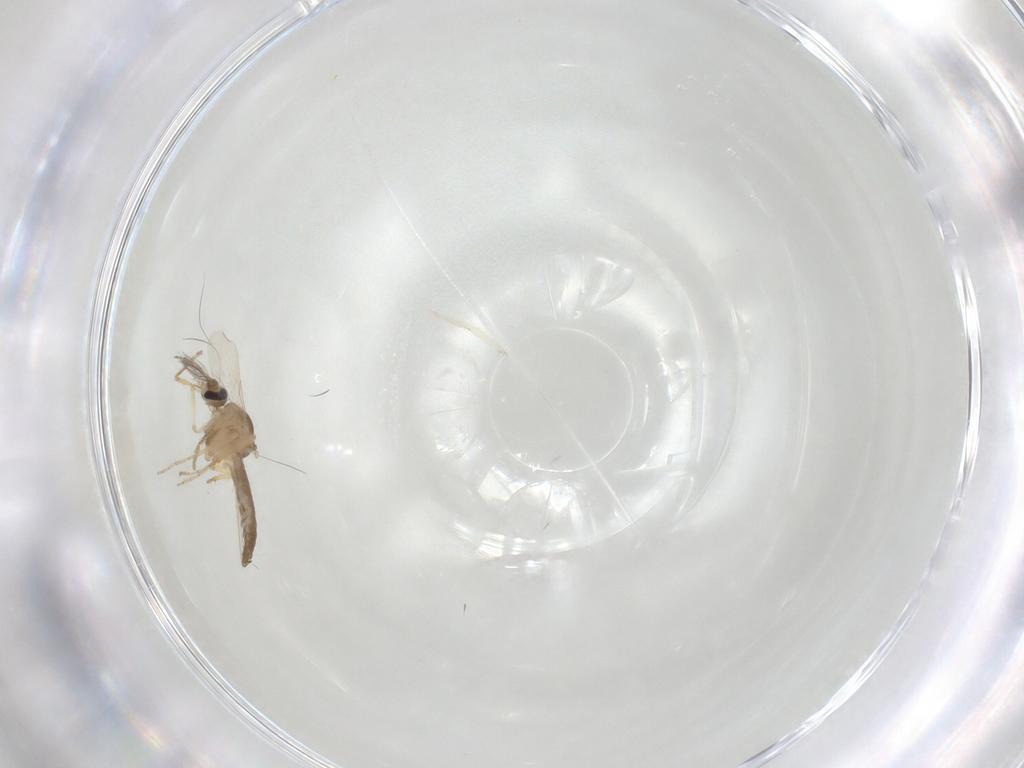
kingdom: Animalia
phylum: Arthropoda
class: Insecta
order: Diptera
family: Ceratopogonidae
